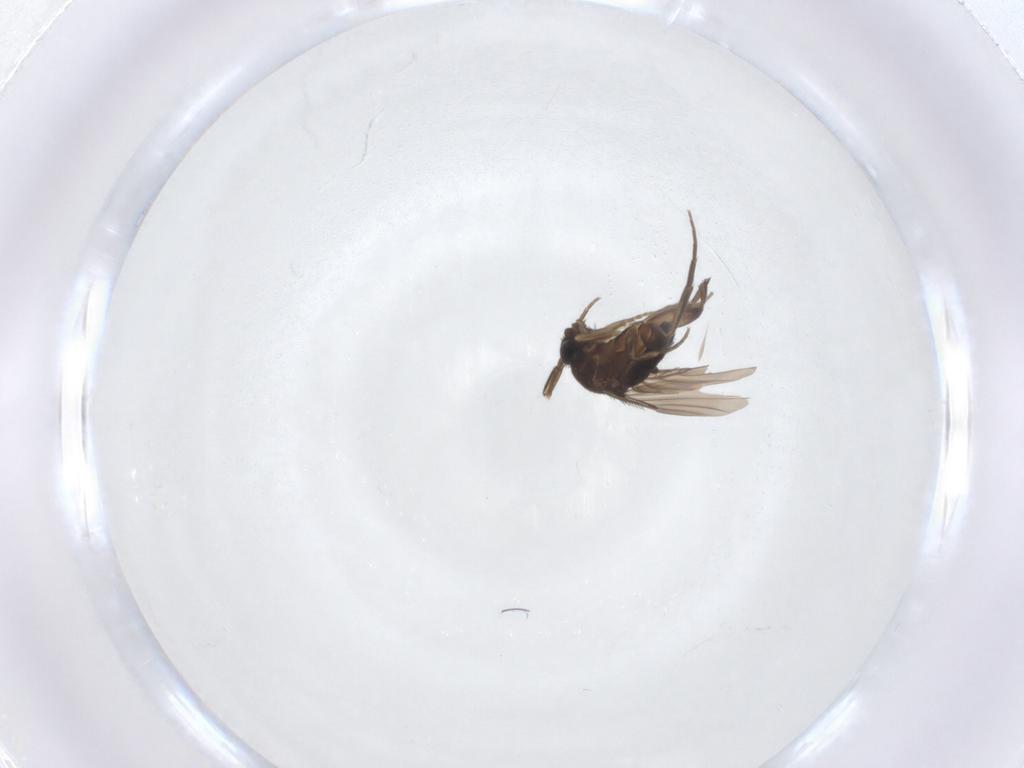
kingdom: Animalia
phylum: Arthropoda
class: Insecta
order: Diptera
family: Phoridae
